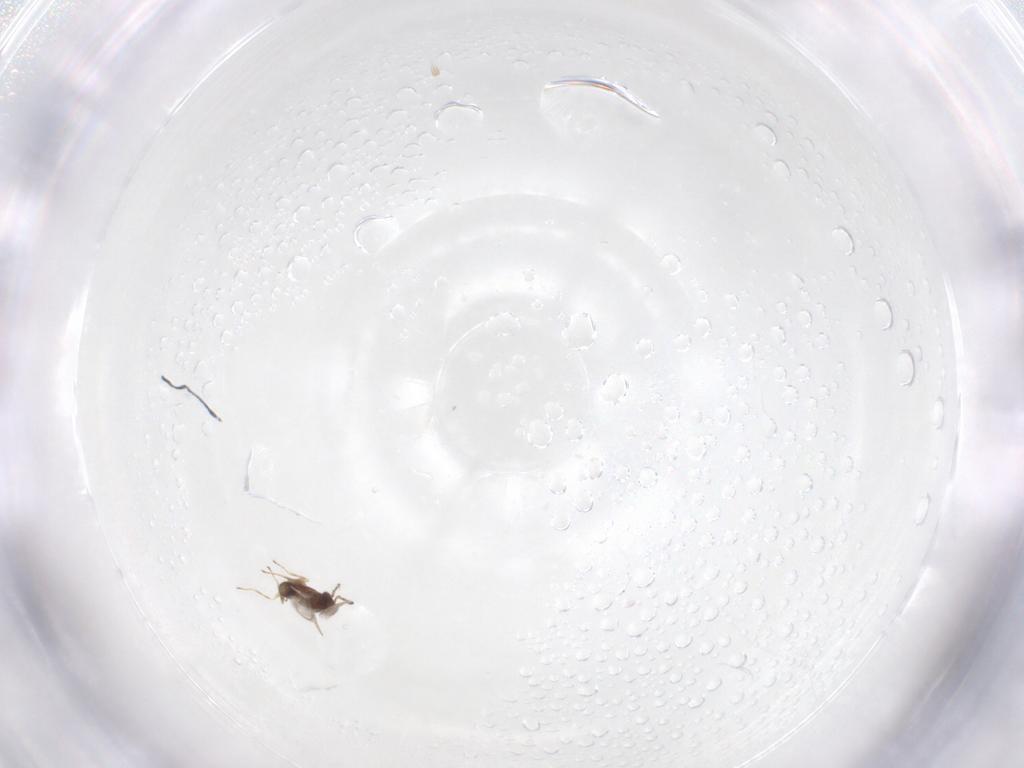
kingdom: Animalia
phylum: Arthropoda
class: Insecta
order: Hymenoptera
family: Mymaridae
